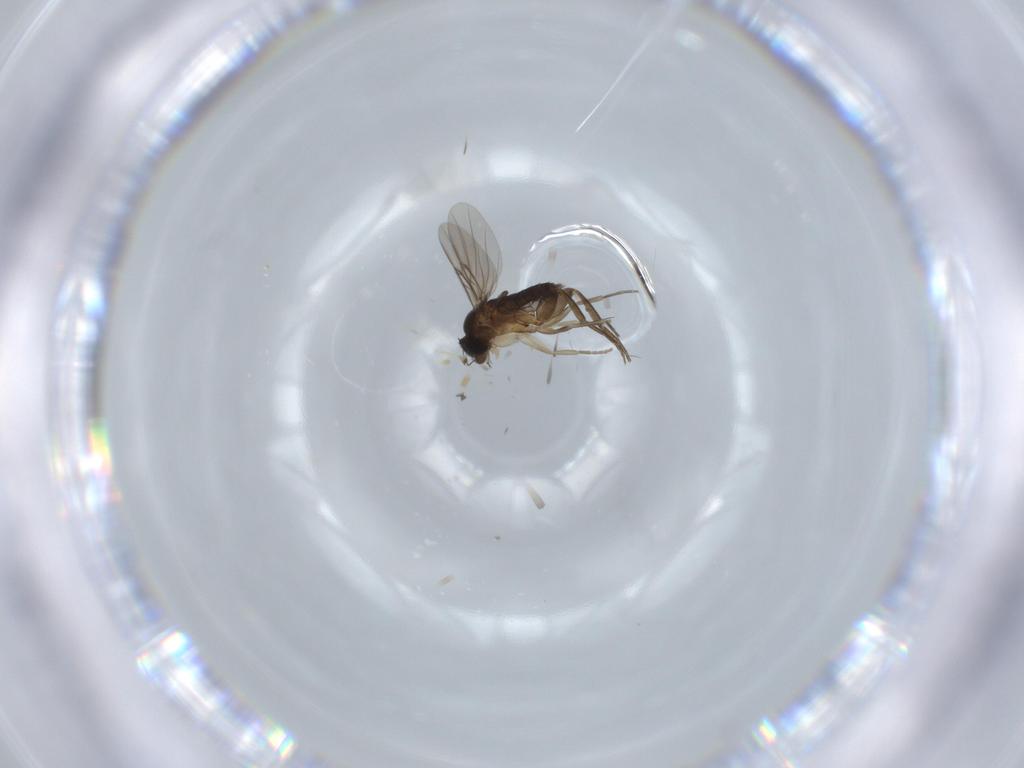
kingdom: Animalia
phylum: Arthropoda
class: Insecta
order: Diptera
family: Phoridae
